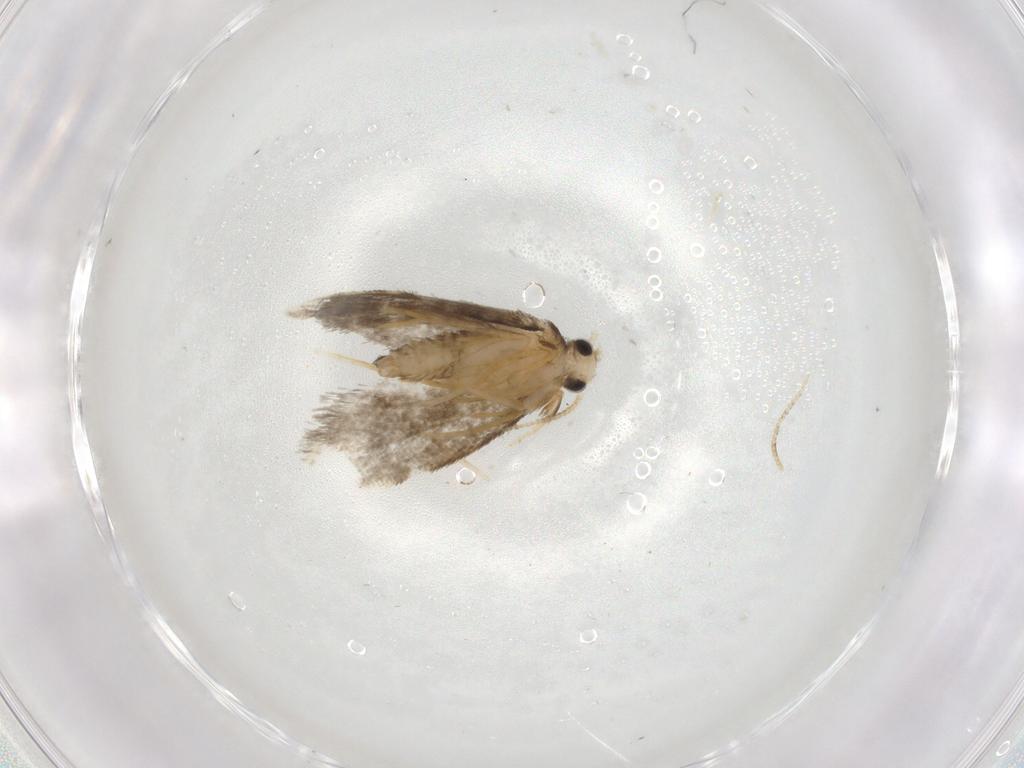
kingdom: Animalia
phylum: Arthropoda
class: Insecta
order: Lepidoptera
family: Psychidae
